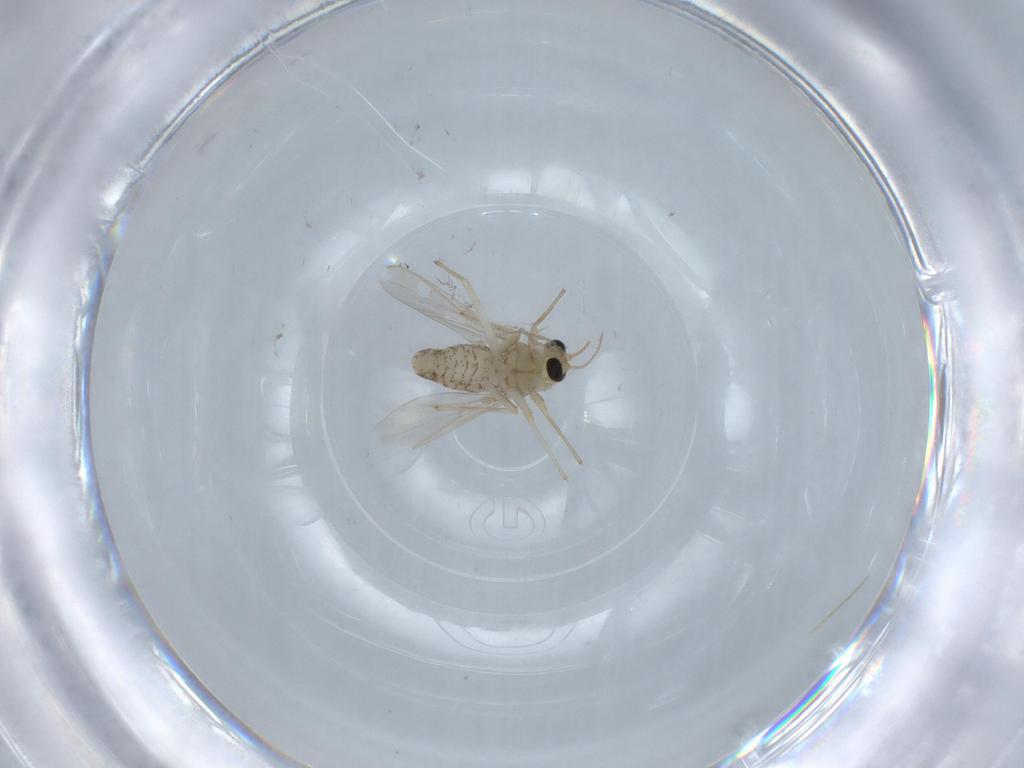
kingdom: Animalia
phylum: Arthropoda
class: Insecta
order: Diptera
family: Chironomidae
